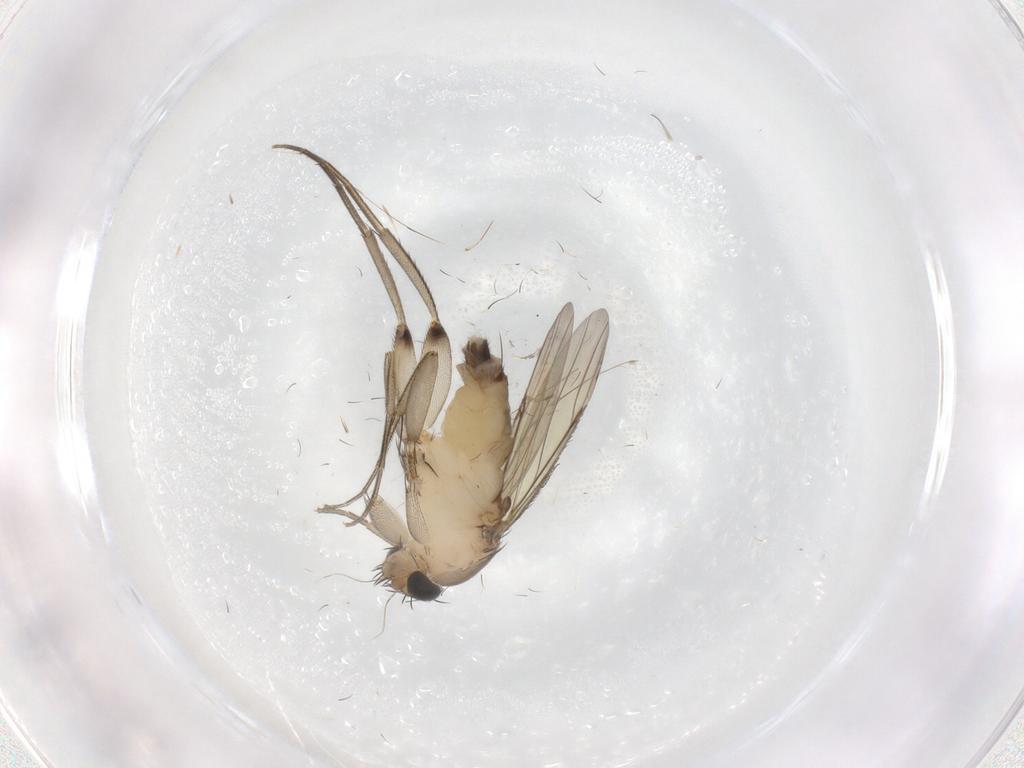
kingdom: Animalia
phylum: Arthropoda
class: Insecta
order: Diptera
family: Phoridae
